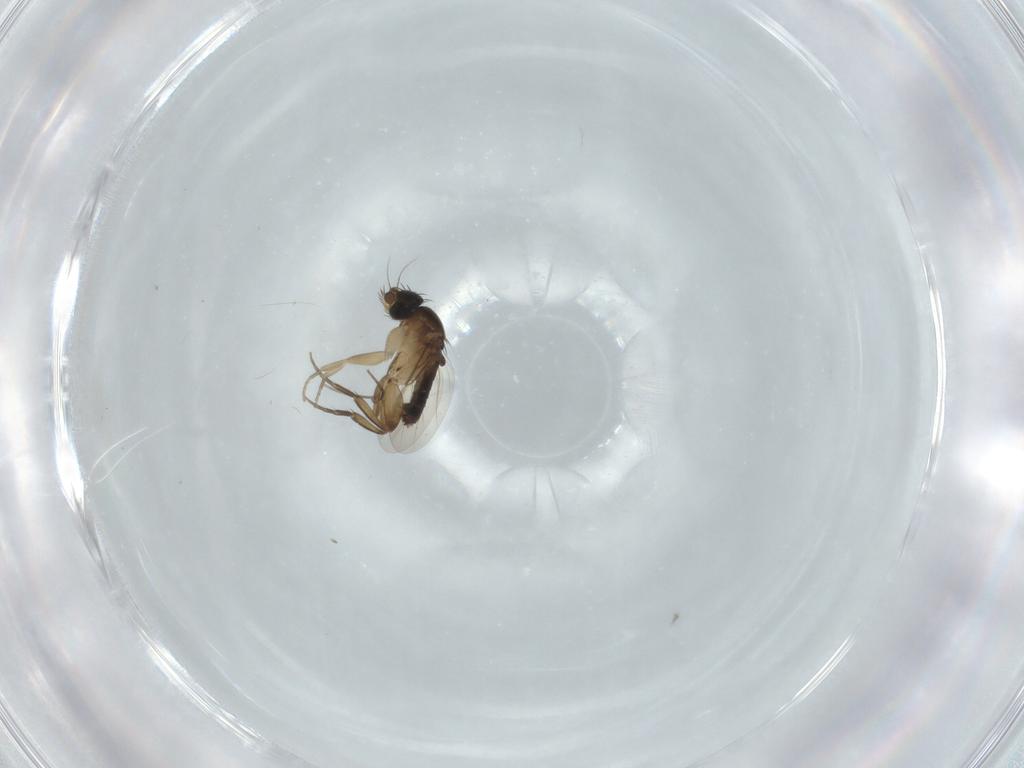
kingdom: Animalia
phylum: Arthropoda
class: Insecta
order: Diptera
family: Phoridae
